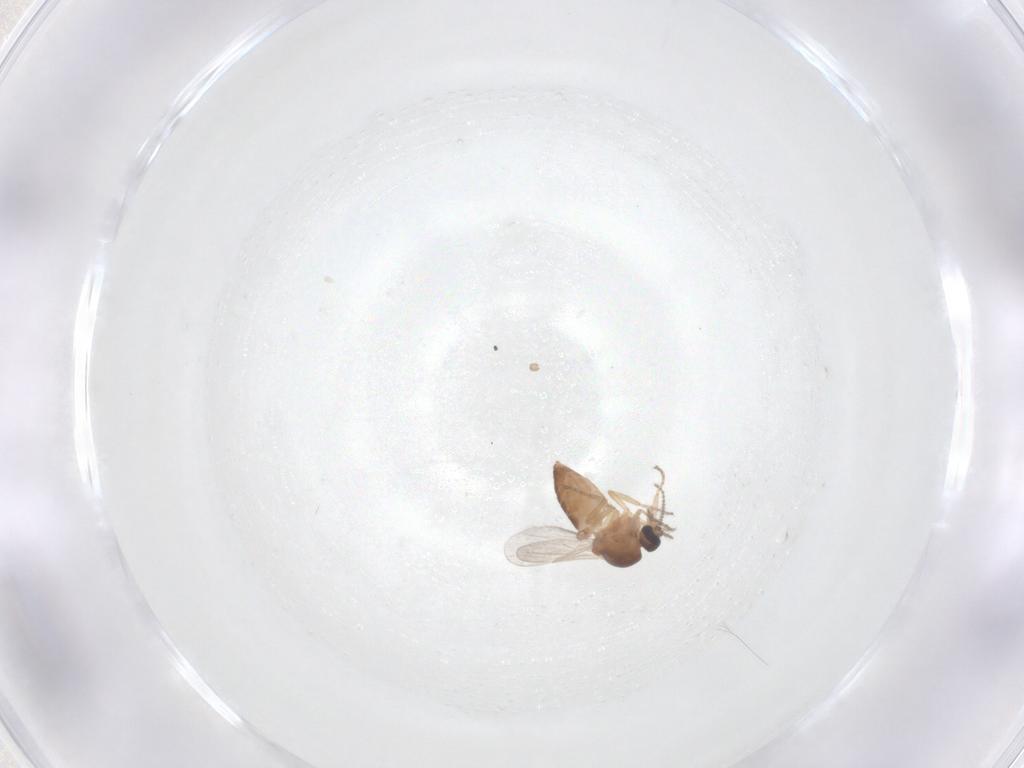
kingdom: Animalia
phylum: Arthropoda
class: Insecta
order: Diptera
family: Ceratopogonidae
